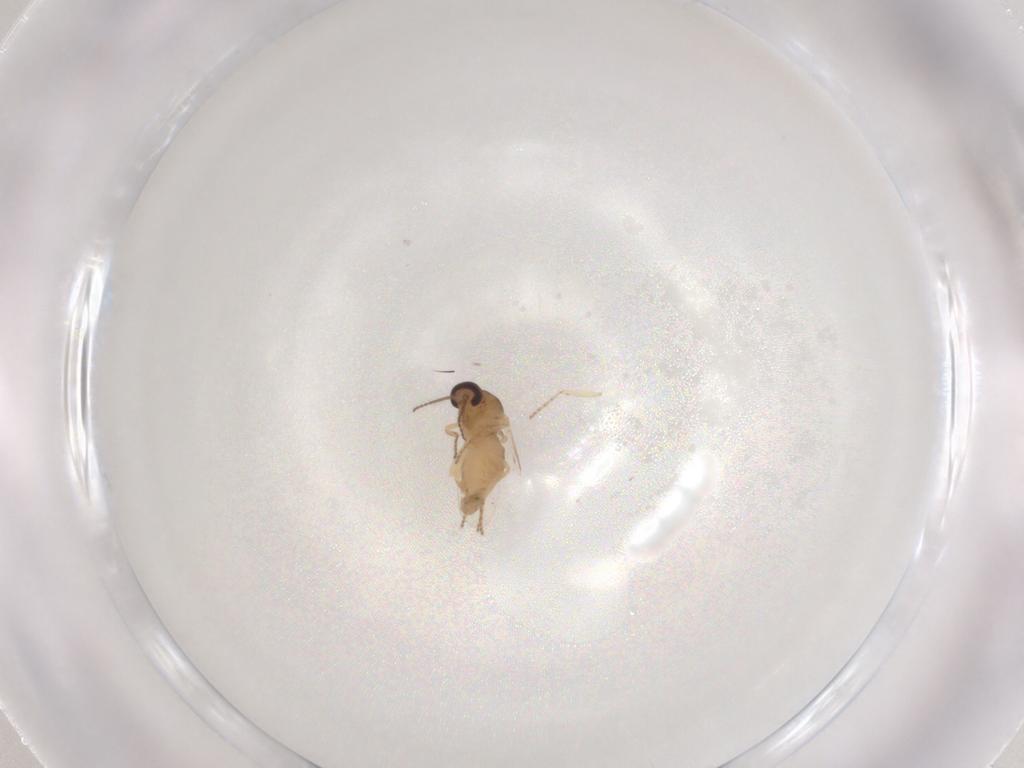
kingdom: Animalia
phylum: Arthropoda
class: Insecta
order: Diptera
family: Ceratopogonidae
